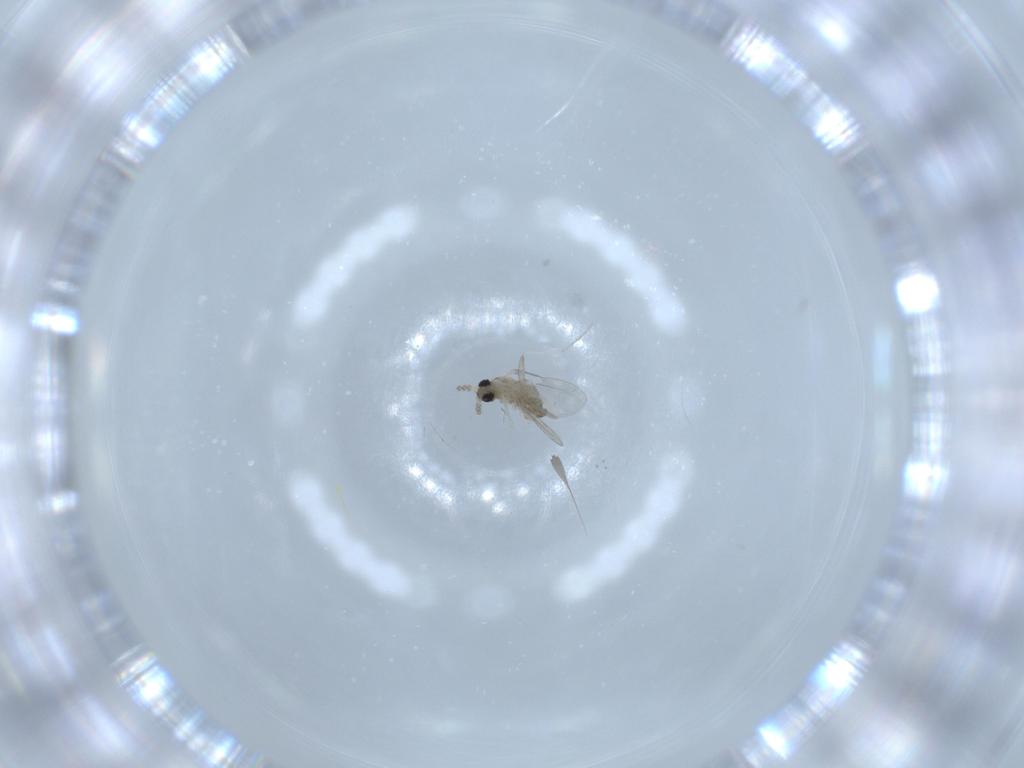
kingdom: Animalia
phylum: Arthropoda
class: Insecta
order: Diptera
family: Cecidomyiidae
